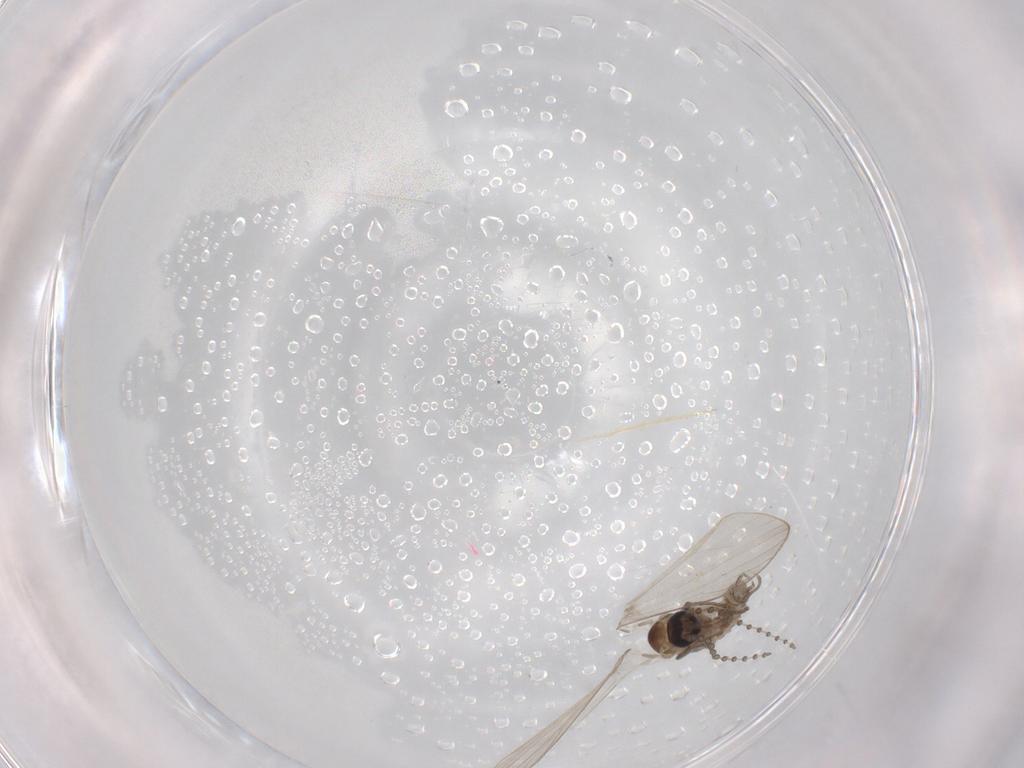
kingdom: Animalia
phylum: Arthropoda
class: Insecta
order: Diptera
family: Psychodidae
